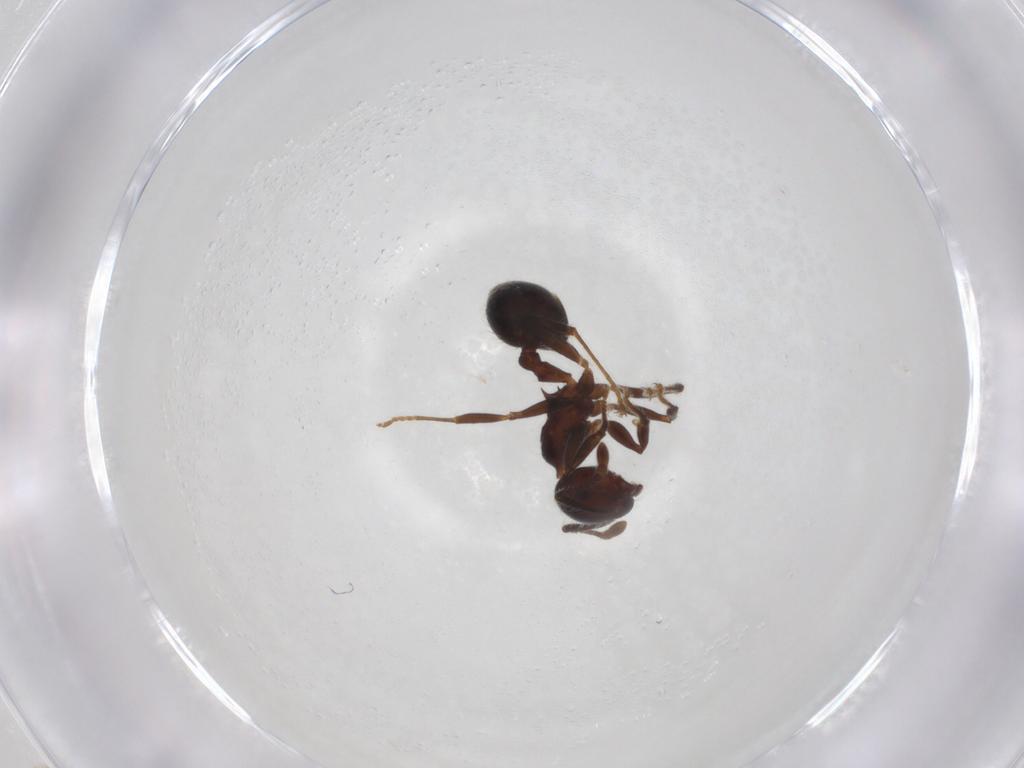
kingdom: Animalia
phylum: Arthropoda
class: Insecta
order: Hymenoptera
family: Formicidae
